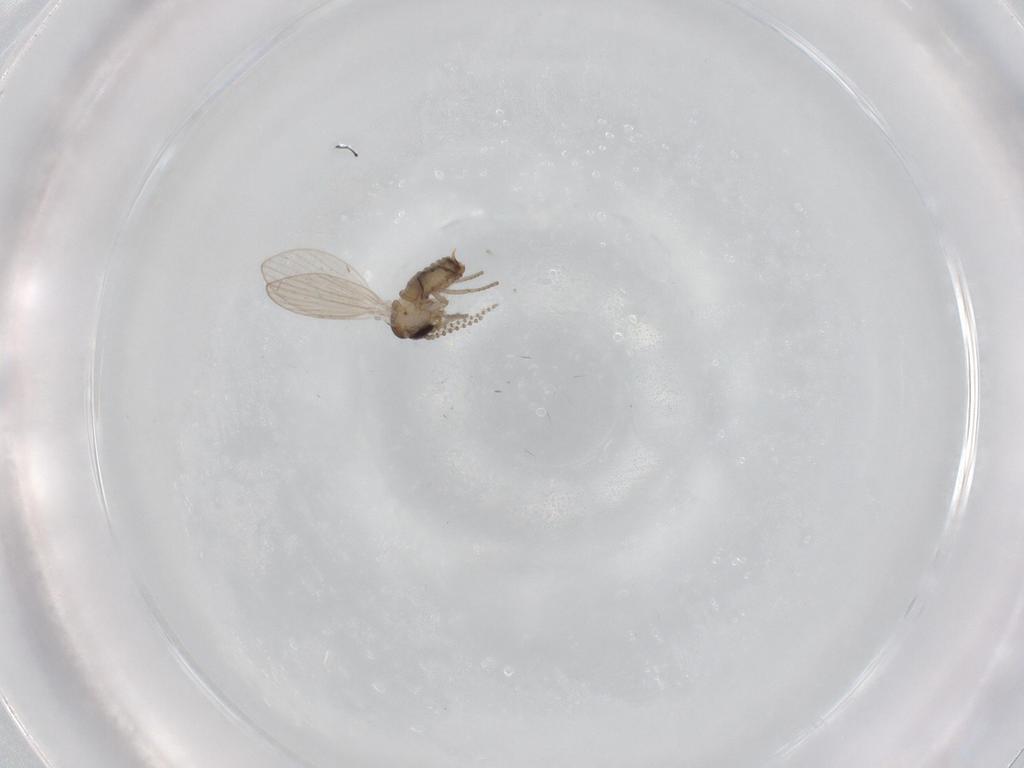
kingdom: Animalia
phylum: Arthropoda
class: Insecta
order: Diptera
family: Psychodidae
